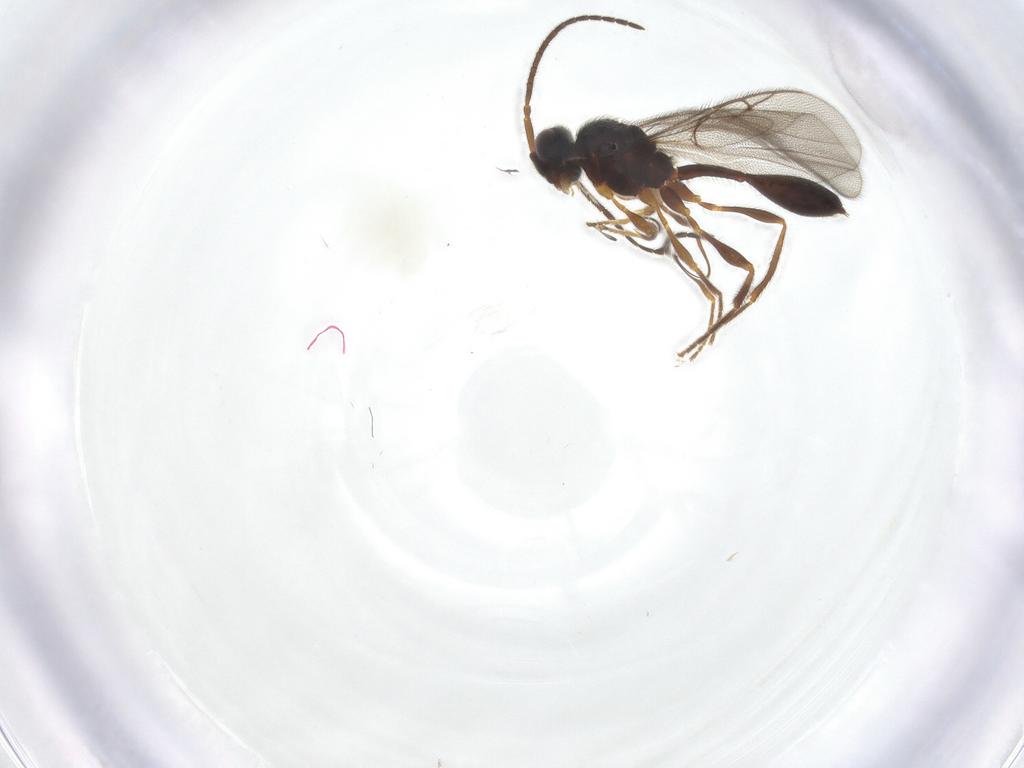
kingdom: Animalia
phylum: Arthropoda
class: Insecta
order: Hymenoptera
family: Diapriidae
